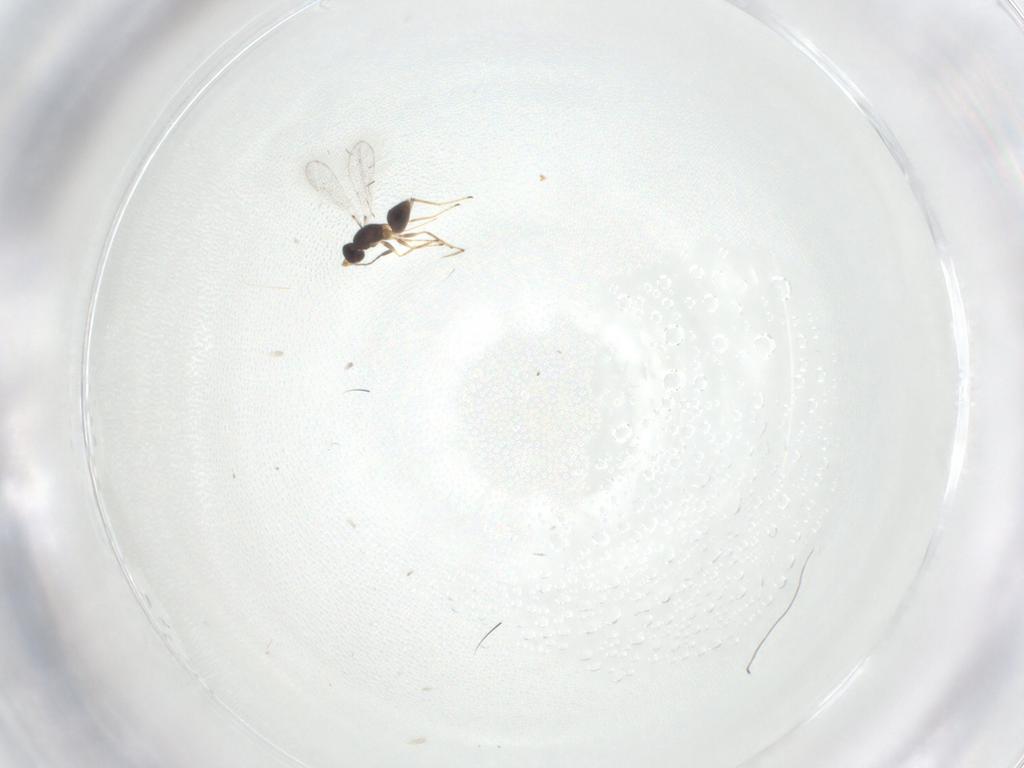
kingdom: Animalia
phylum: Arthropoda
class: Insecta
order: Hymenoptera
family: Eulophidae
